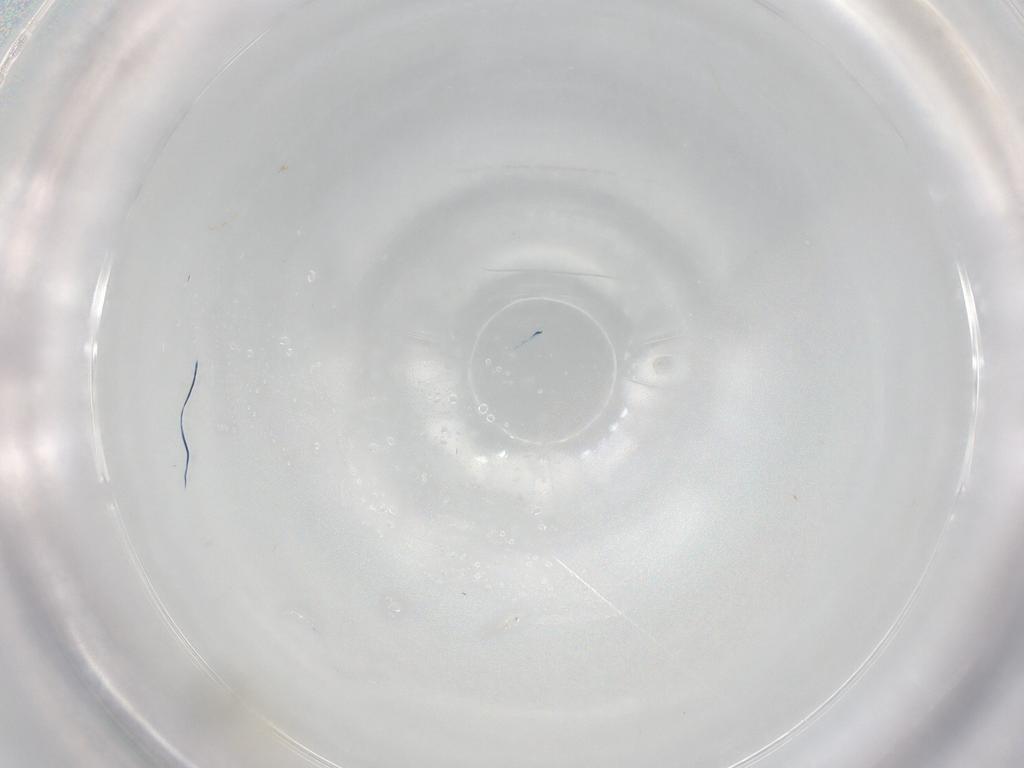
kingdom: Animalia
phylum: Arthropoda
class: Insecta
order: Diptera
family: Chironomidae
